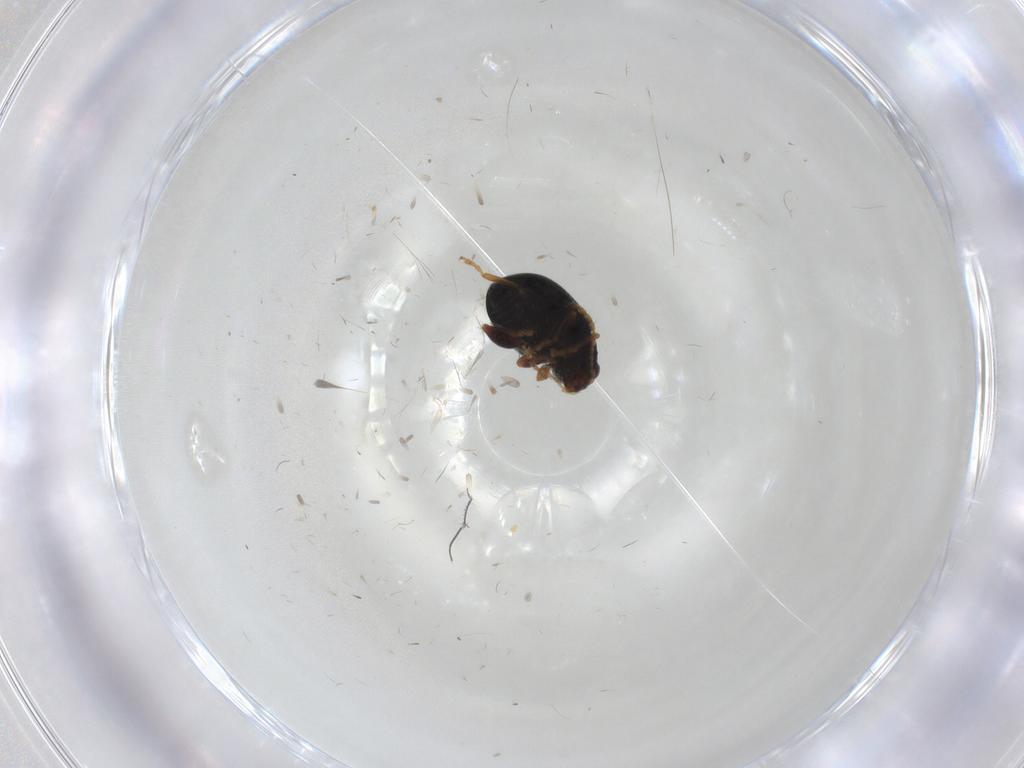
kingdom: Animalia
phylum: Arthropoda
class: Insecta
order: Coleoptera
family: Chrysomelidae
